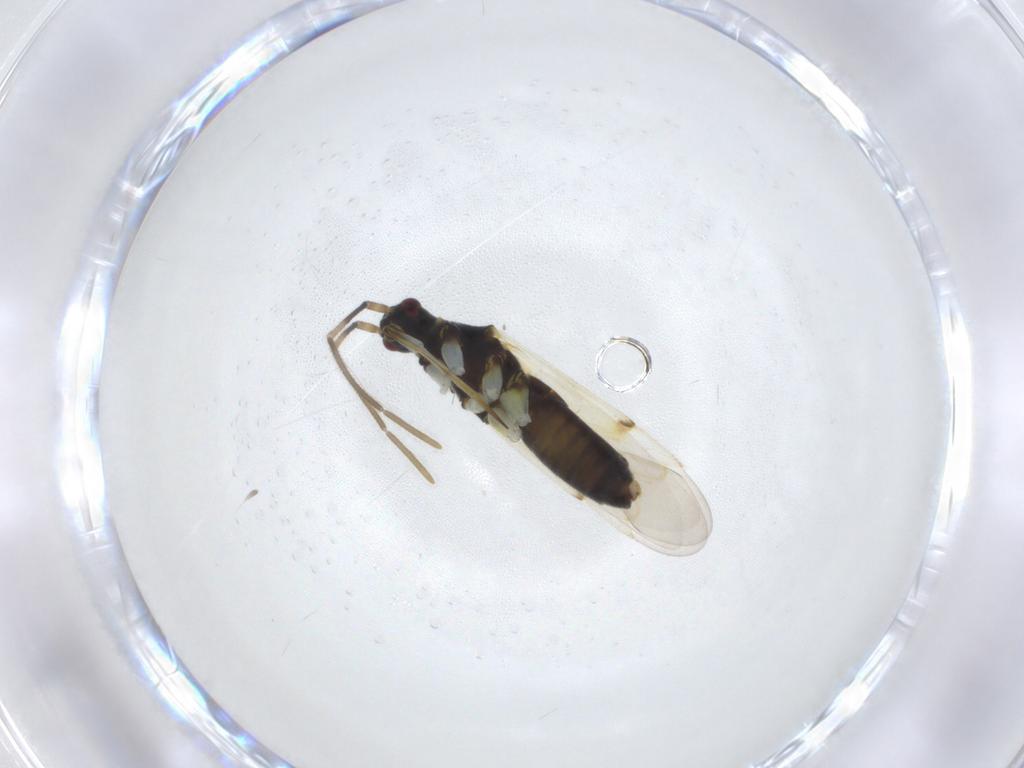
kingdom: Animalia
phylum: Arthropoda
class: Insecta
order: Hemiptera
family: Miridae
